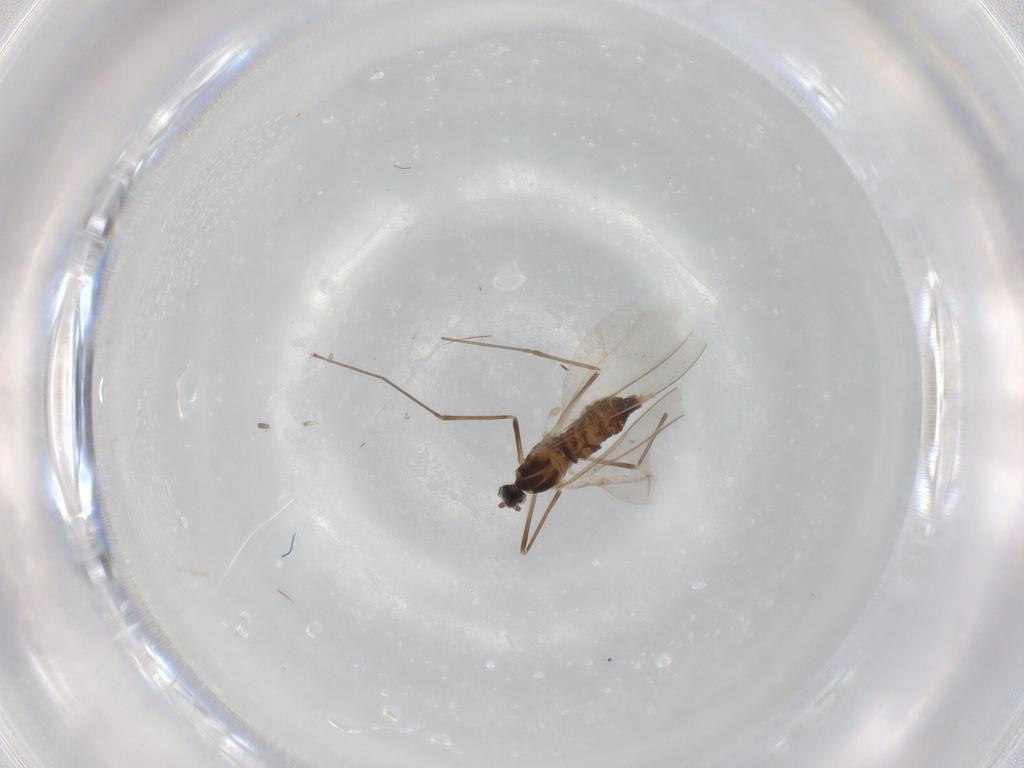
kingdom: Animalia
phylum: Arthropoda
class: Insecta
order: Diptera
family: Cecidomyiidae
